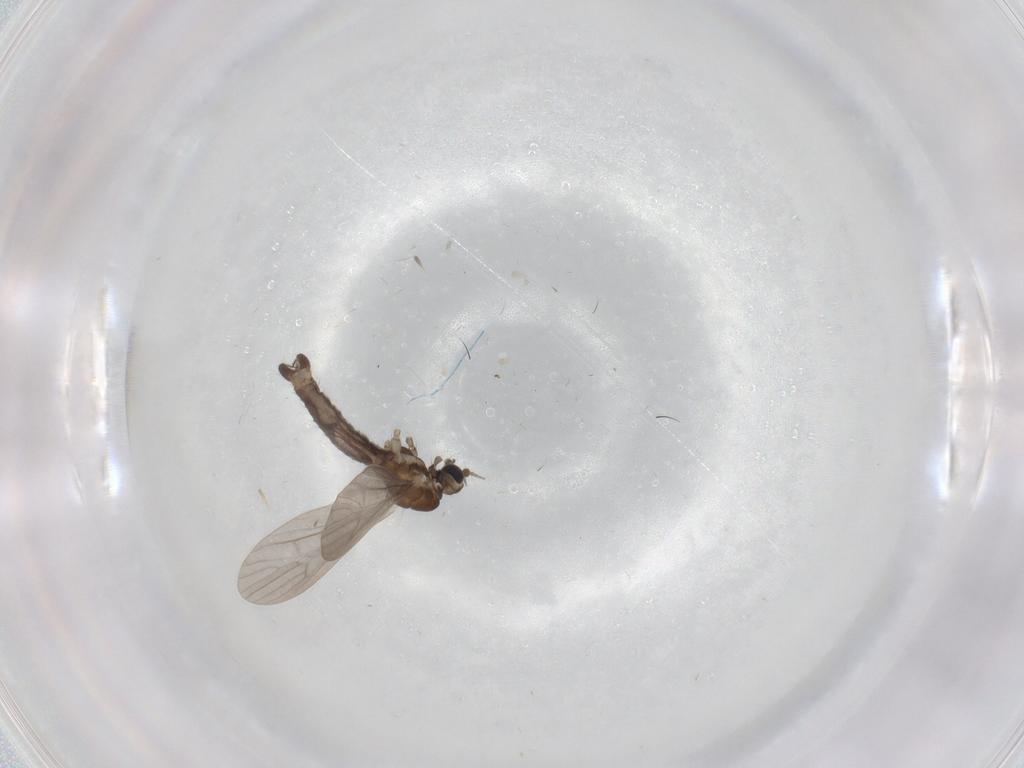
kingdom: Animalia
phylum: Arthropoda
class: Insecta
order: Diptera
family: Limoniidae
